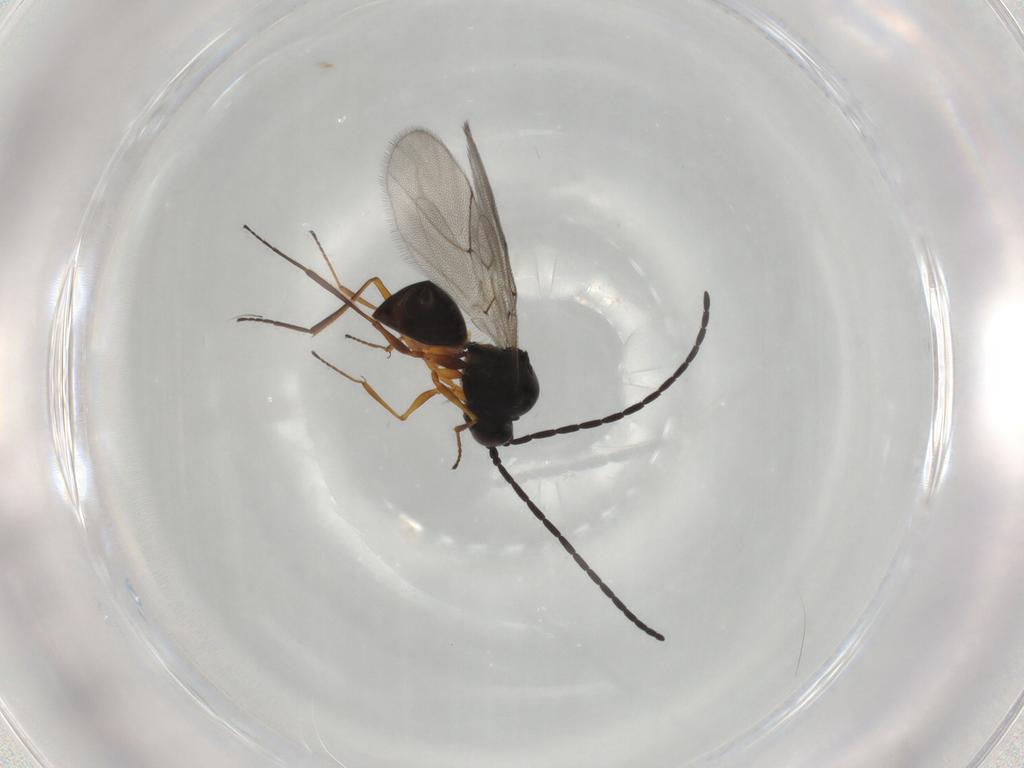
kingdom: Animalia
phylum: Arthropoda
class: Insecta
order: Hymenoptera
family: Figitidae
